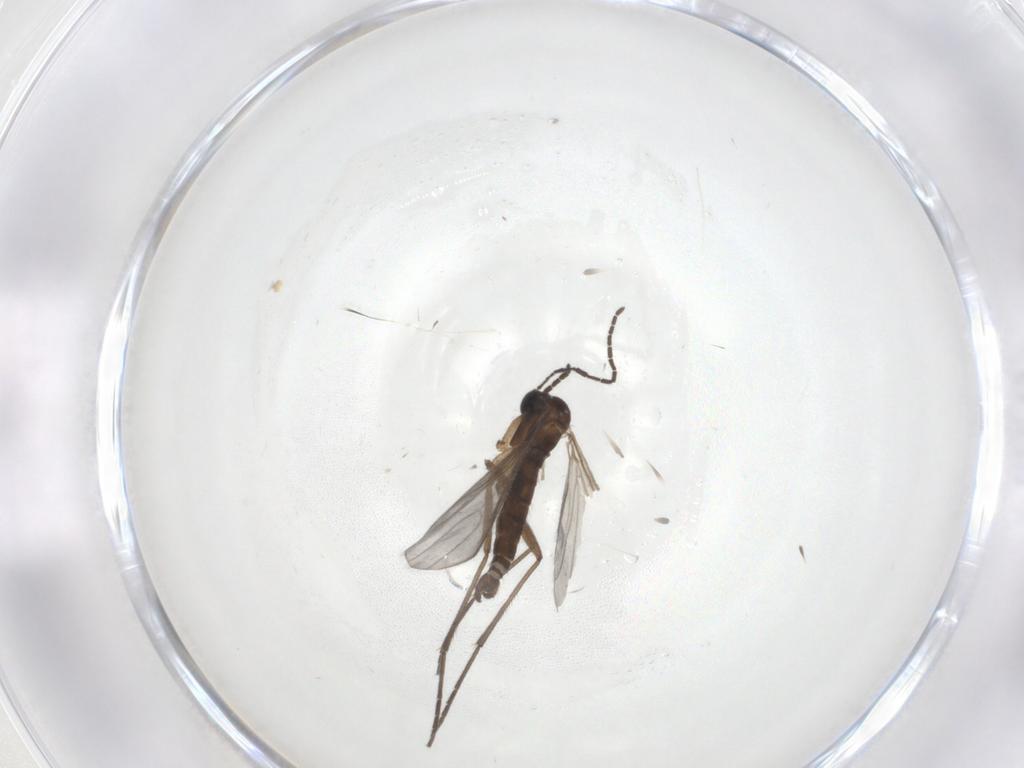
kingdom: Animalia
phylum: Arthropoda
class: Insecta
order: Diptera
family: Sciaridae
